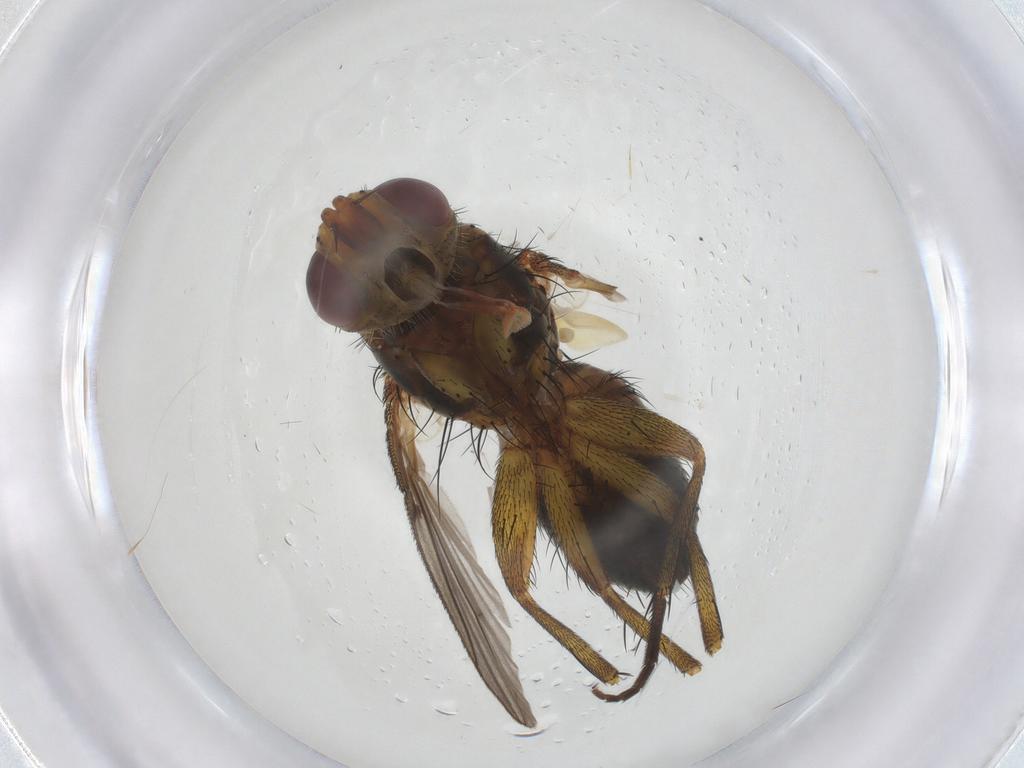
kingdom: Animalia
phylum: Arthropoda
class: Insecta
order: Diptera
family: Tachinidae
